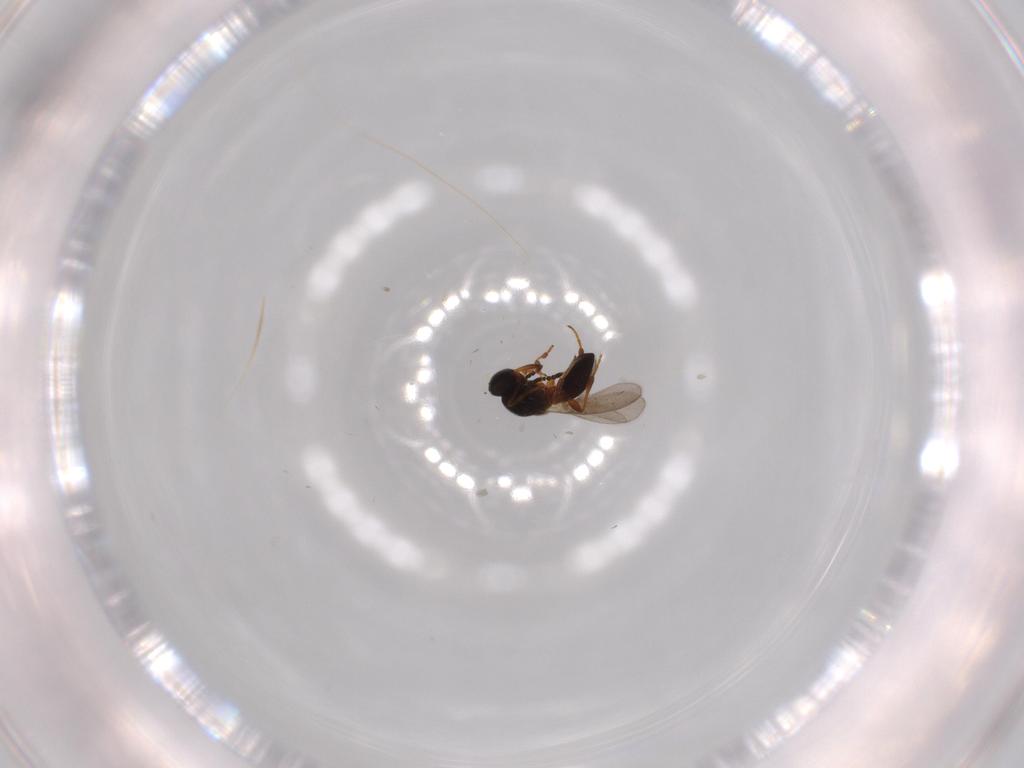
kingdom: Animalia
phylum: Arthropoda
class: Insecta
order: Hymenoptera
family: Platygastridae
